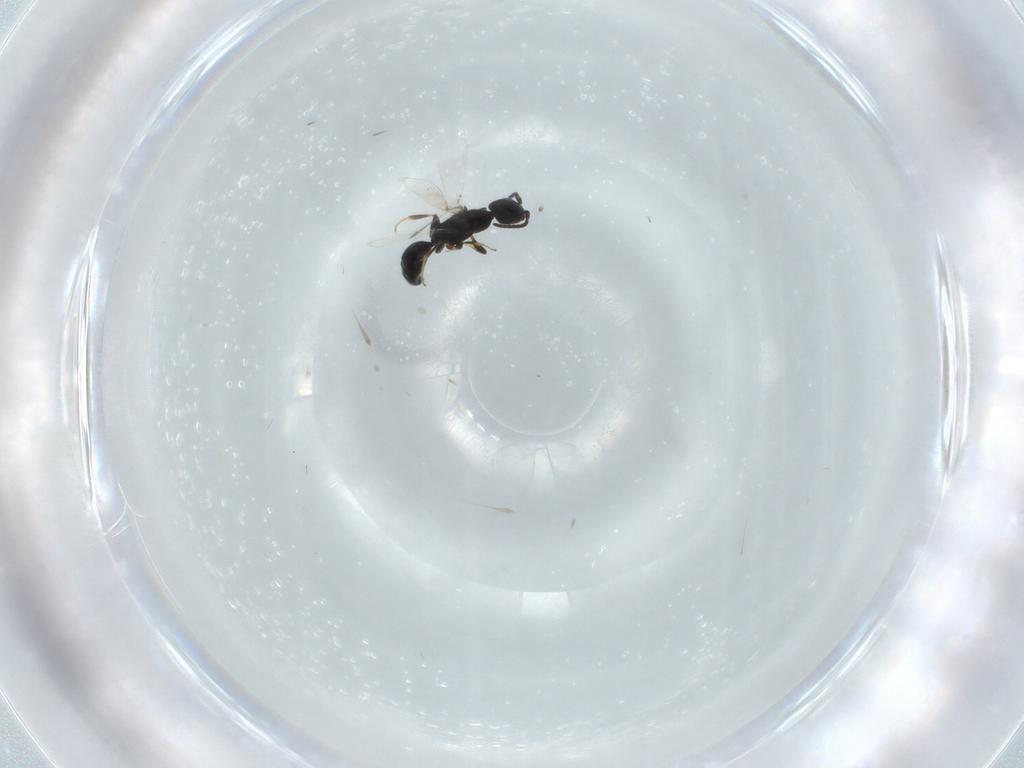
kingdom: Animalia
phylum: Arthropoda
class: Insecta
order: Hymenoptera
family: Bethylidae
